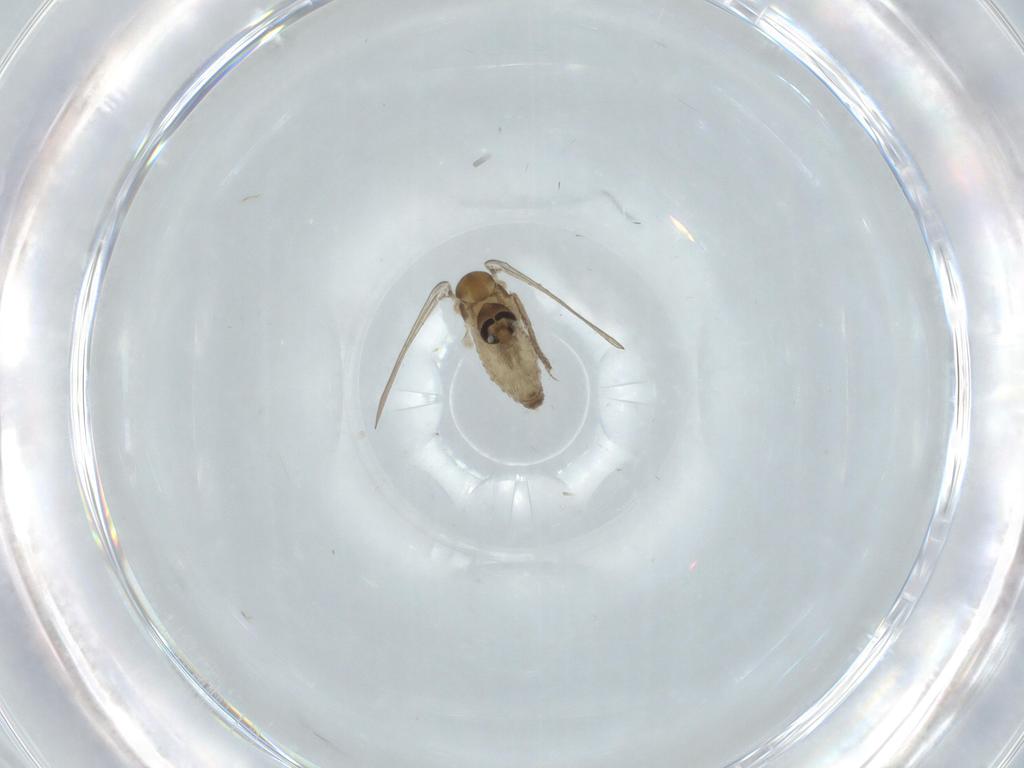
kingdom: Animalia
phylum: Arthropoda
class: Insecta
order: Diptera
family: Psychodidae
